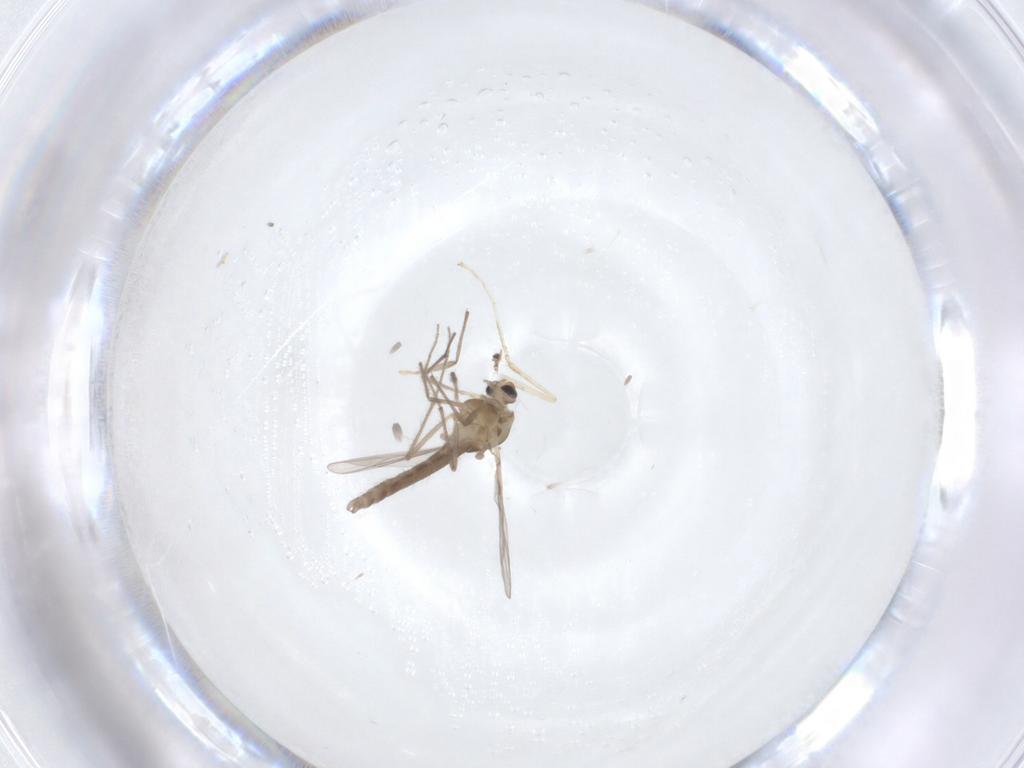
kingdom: Animalia
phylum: Arthropoda
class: Insecta
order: Diptera
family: Chironomidae
